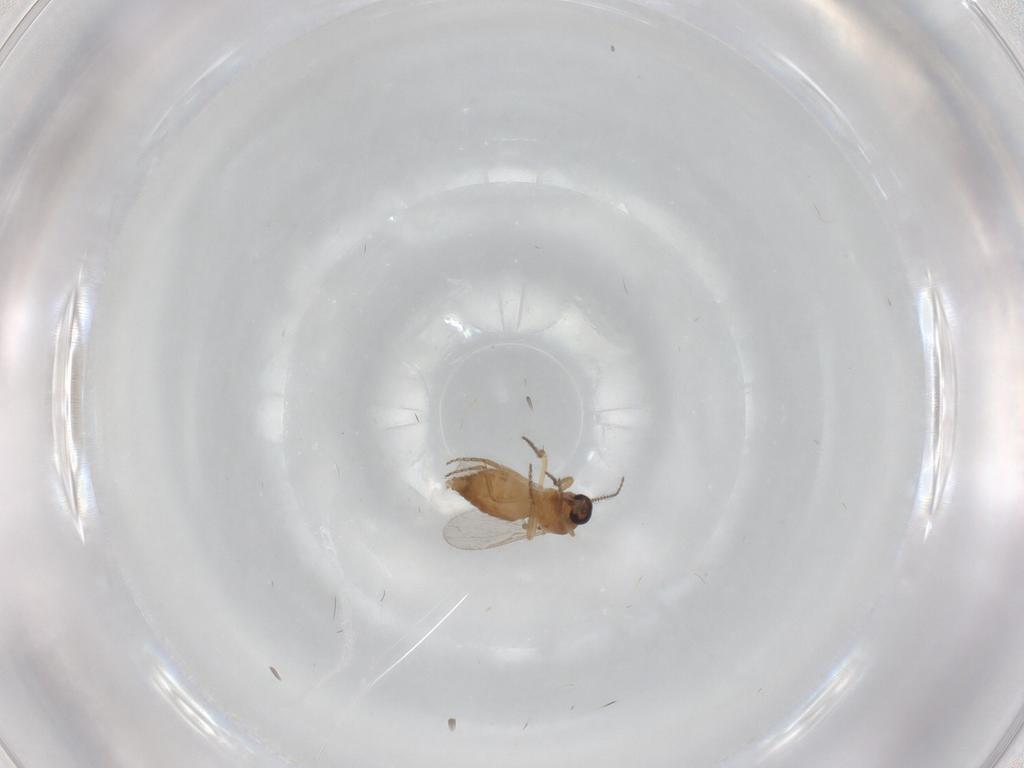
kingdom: Animalia
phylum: Arthropoda
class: Insecta
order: Diptera
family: Ceratopogonidae
